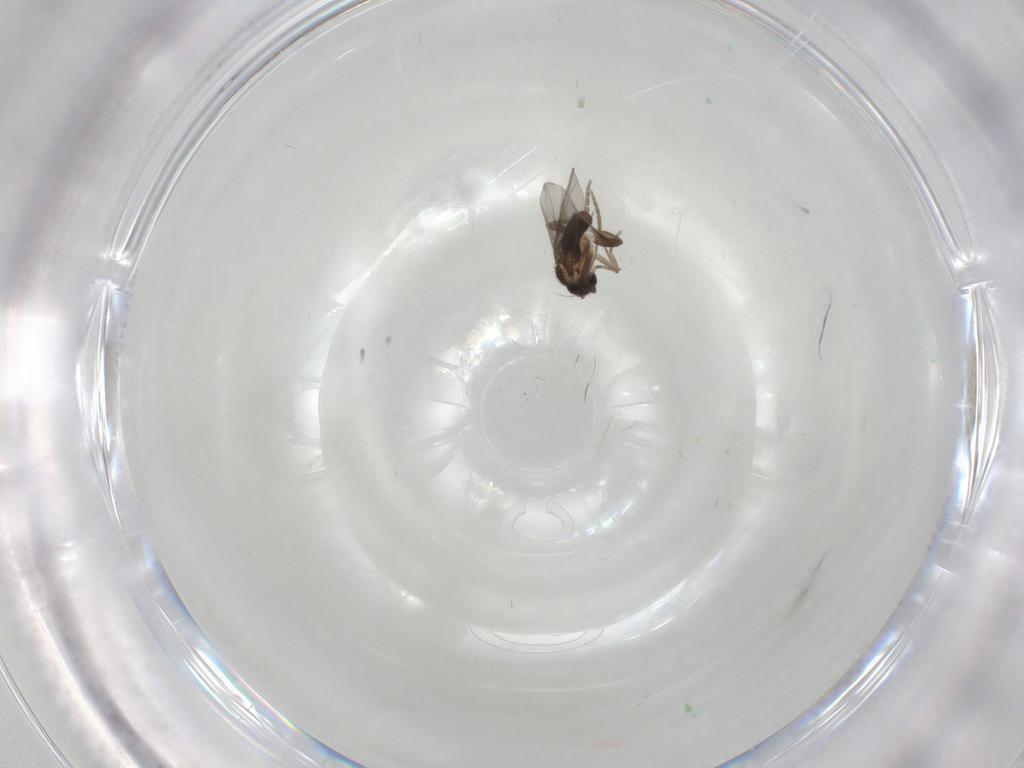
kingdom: Animalia
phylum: Arthropoda
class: Insecta
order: Diptera
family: Chironomidae
